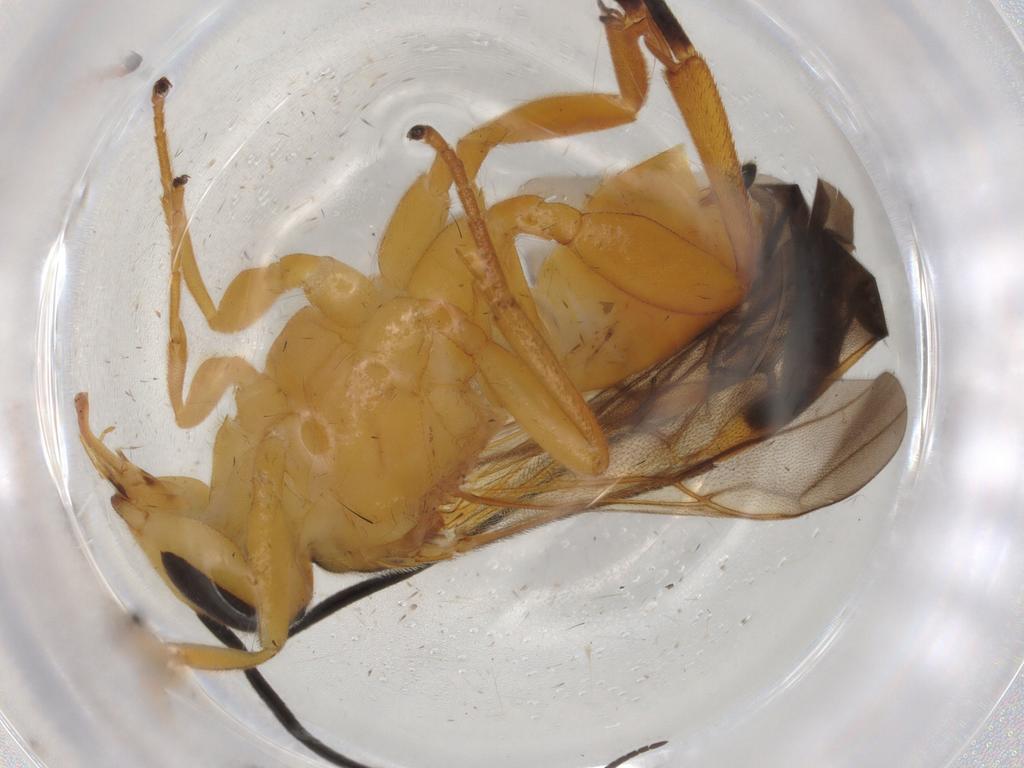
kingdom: Animalia
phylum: Arthropoda
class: Insecta
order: Hymenoptera
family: Braconidae
